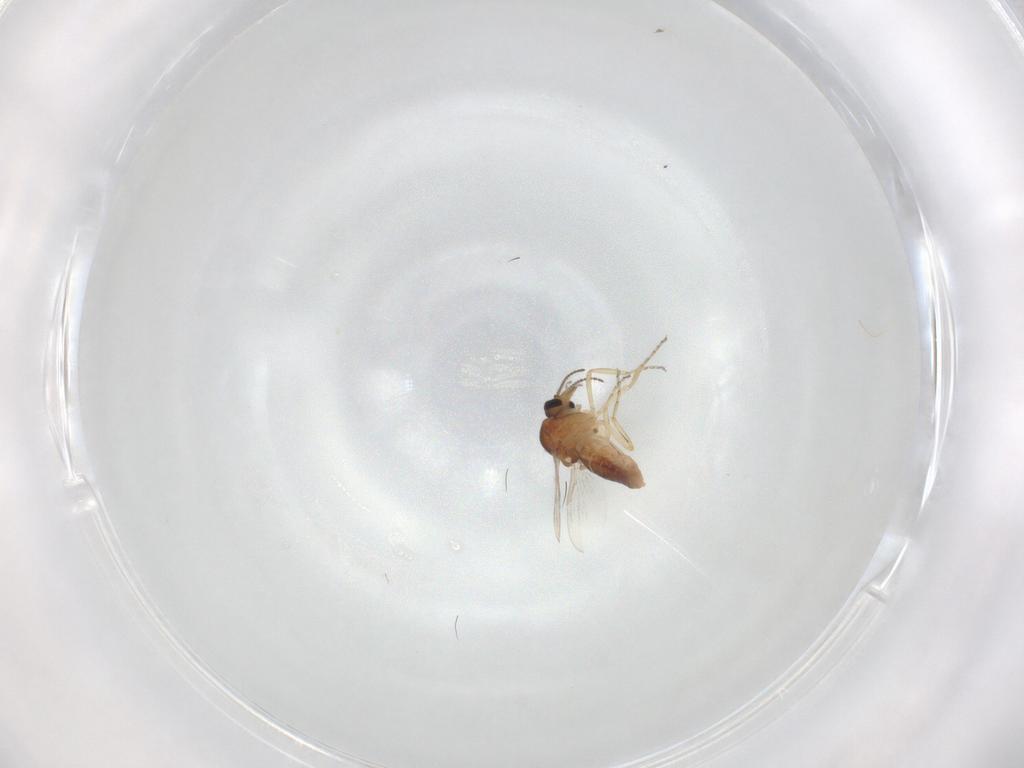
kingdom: Animalia
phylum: Arthropoda
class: Insecta
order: Diptera
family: Ceratopogonidae
